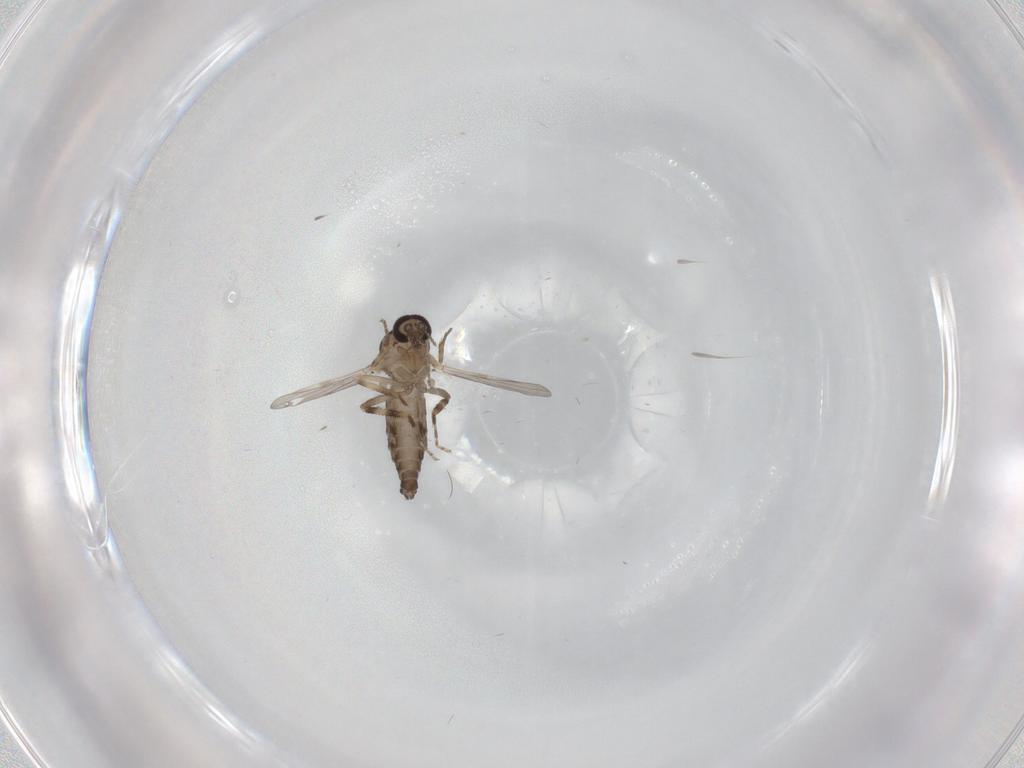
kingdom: Animalia
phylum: Arthropoda
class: Insecta
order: Diptera
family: Ceratopogonidae
